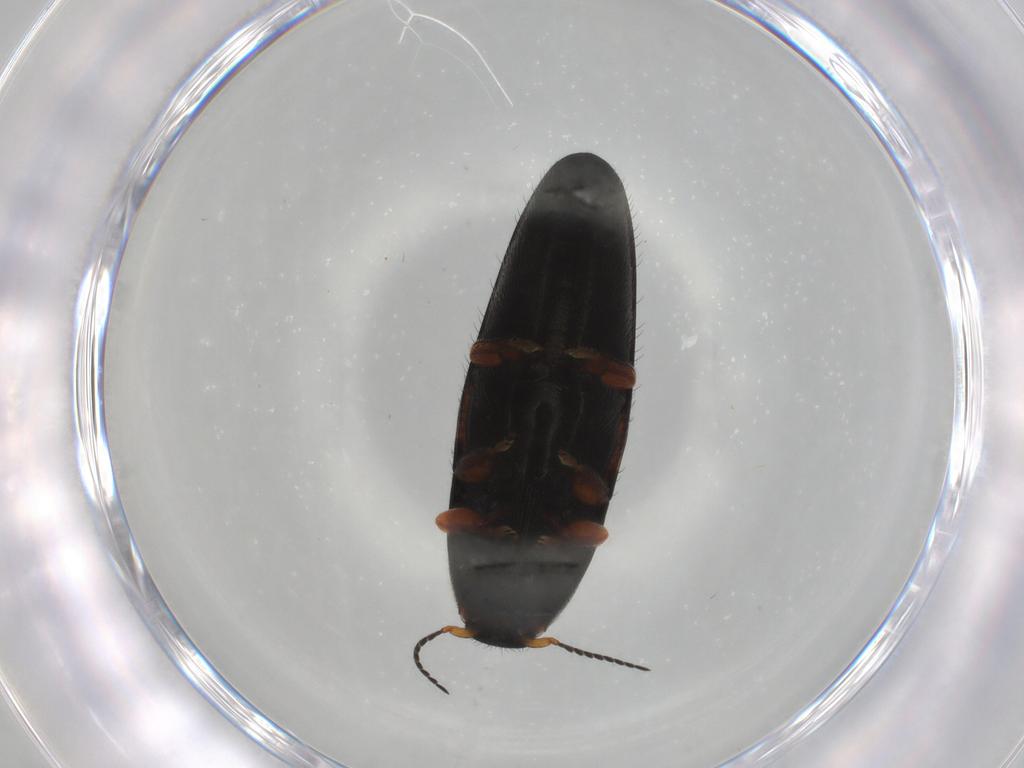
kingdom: Animalia
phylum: Arthropoda
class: Insecta
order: Coleoptera
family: Elateridae
